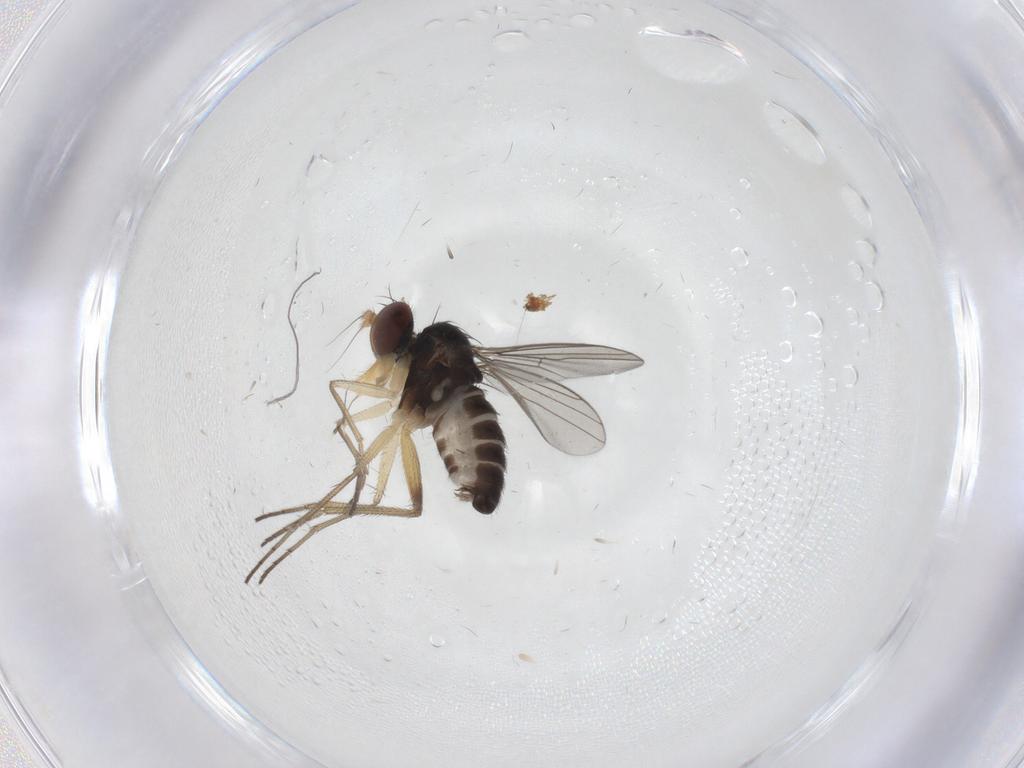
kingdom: Animalia
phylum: Arthropoda
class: Insecta
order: Diptera
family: Dolichopodidae
